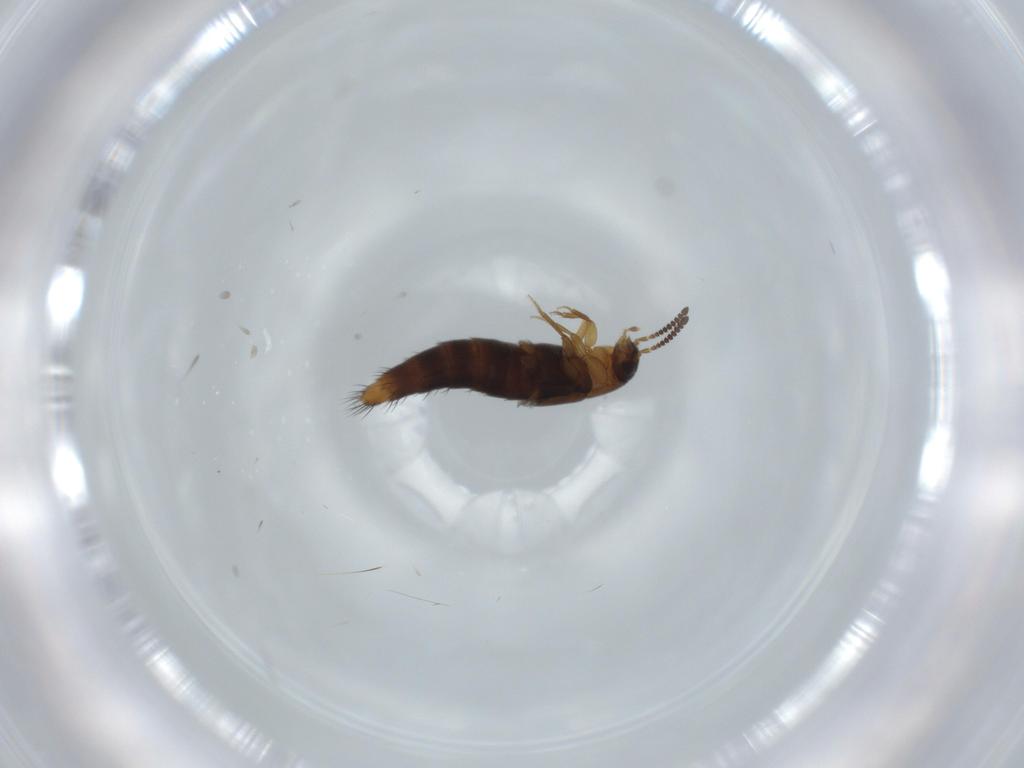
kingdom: Animalia
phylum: Arthropoda
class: Insecta
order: Coleoptera
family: Staphylinidae
